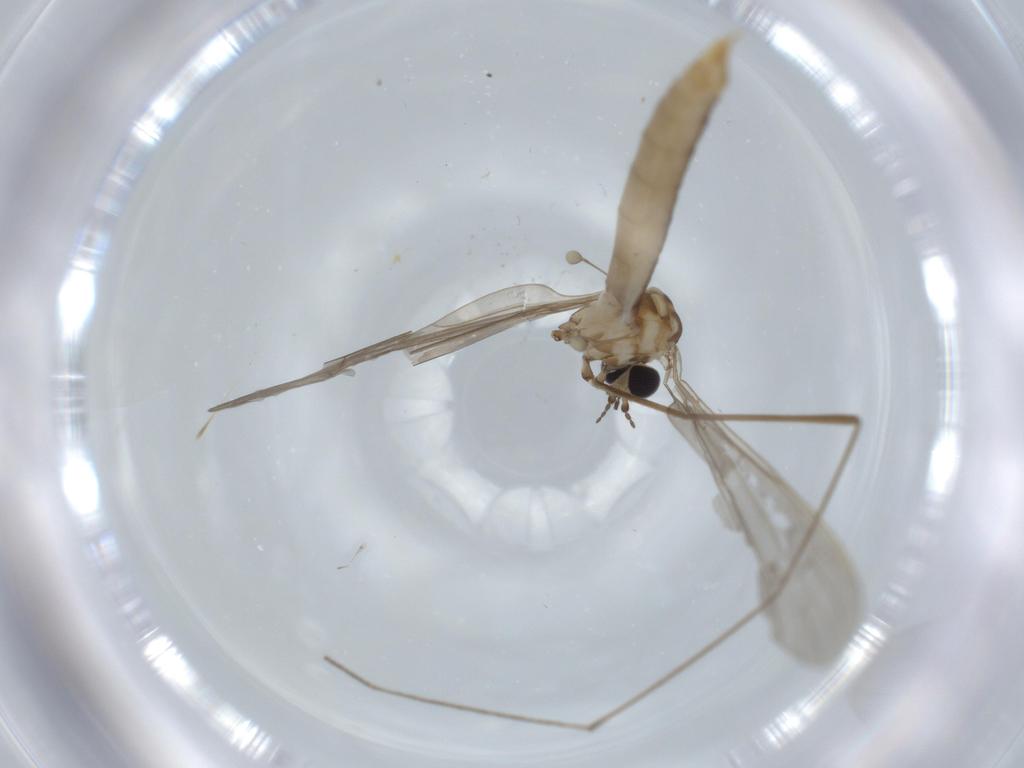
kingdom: Animalia
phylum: Arthropoda
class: Insecta
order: Diptera
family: Hybotidae
